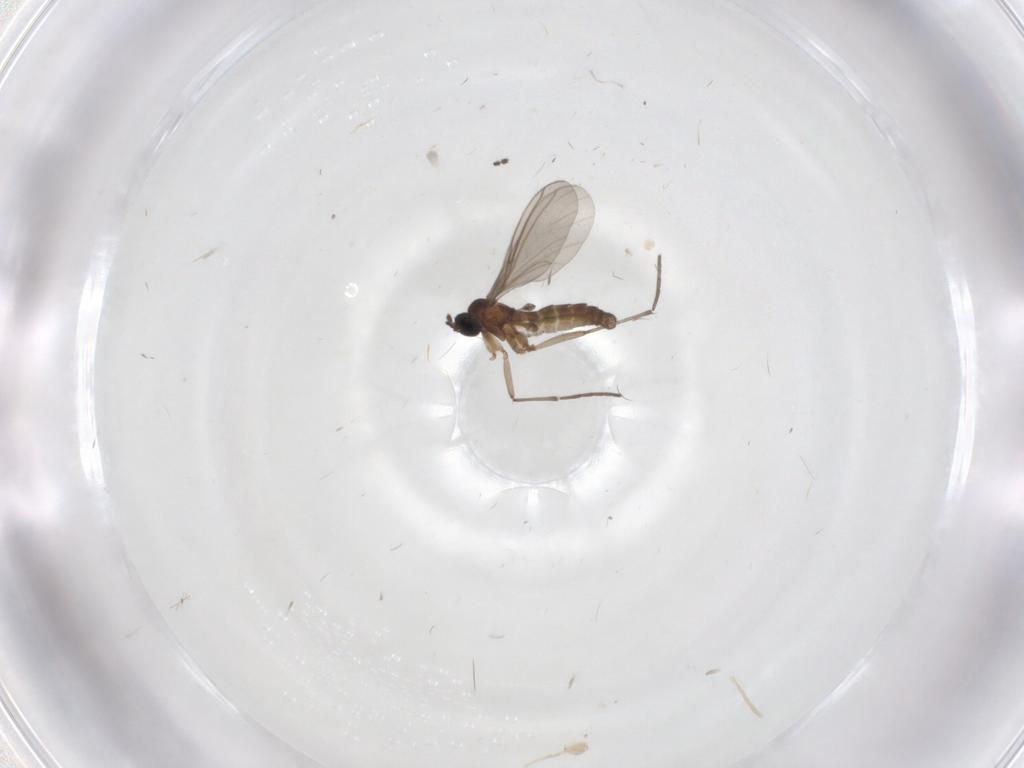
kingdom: Animalia
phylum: Arthropoda
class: Insecta
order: Diptera
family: Sciaridae
